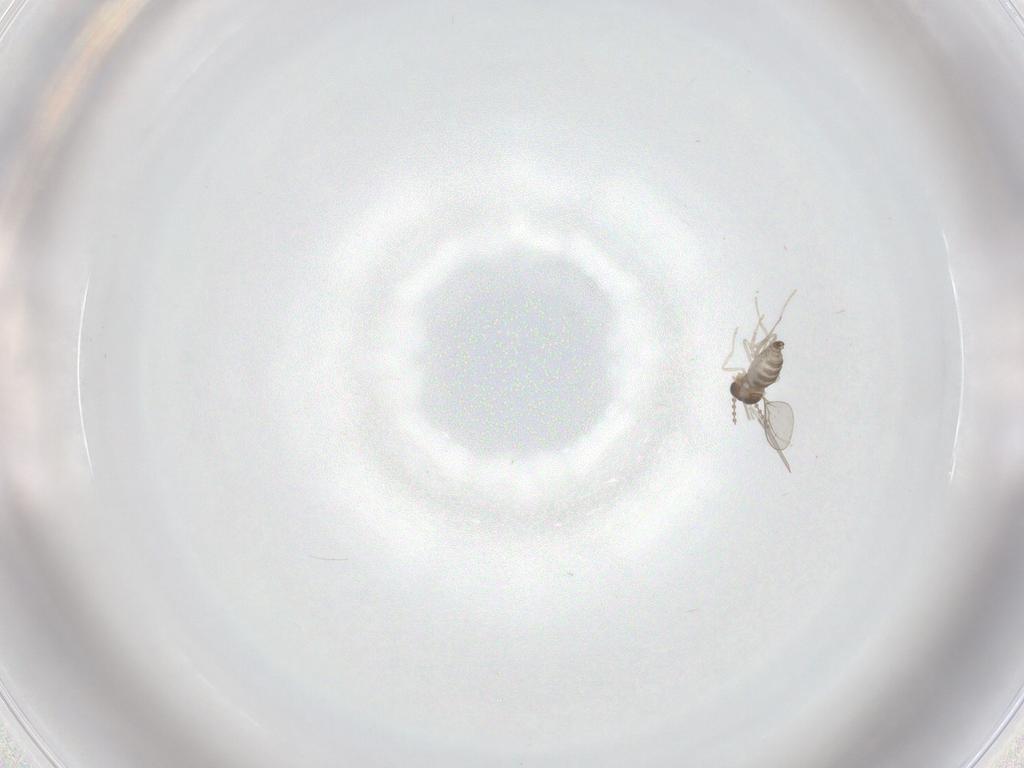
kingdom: Animalia
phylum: Arthropoda
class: Insecta
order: Diptera
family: Cecidomyiidae
